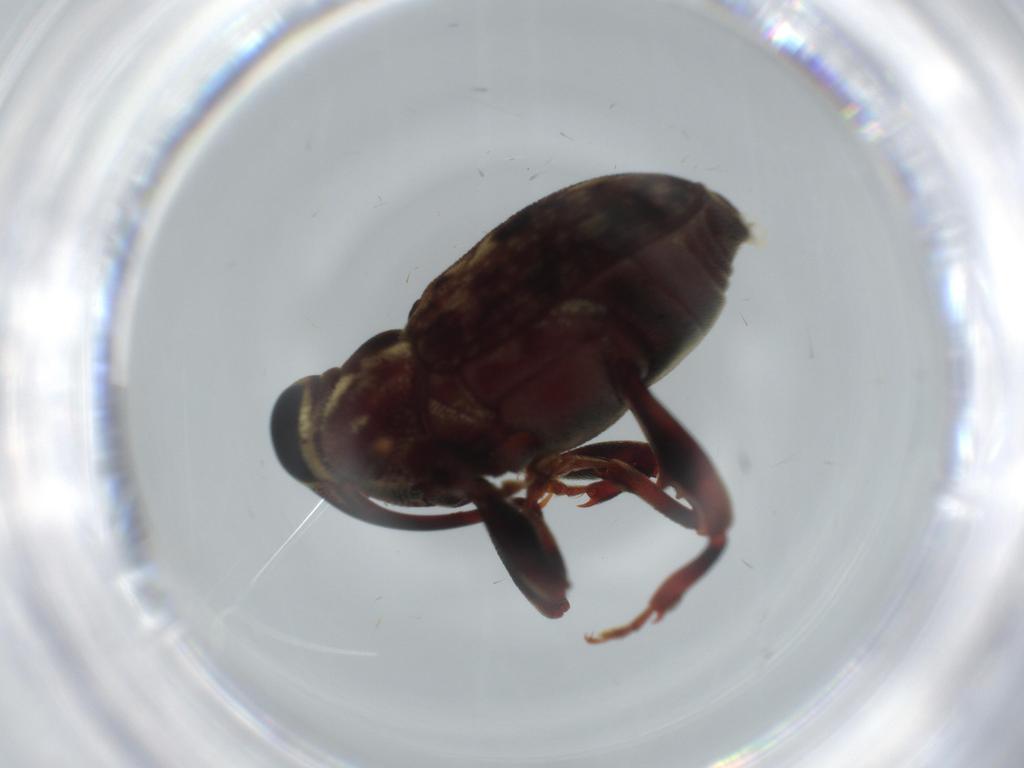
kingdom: Animalia
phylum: Arthropoda
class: Insecta
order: Coleoptera
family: Curculionidae
